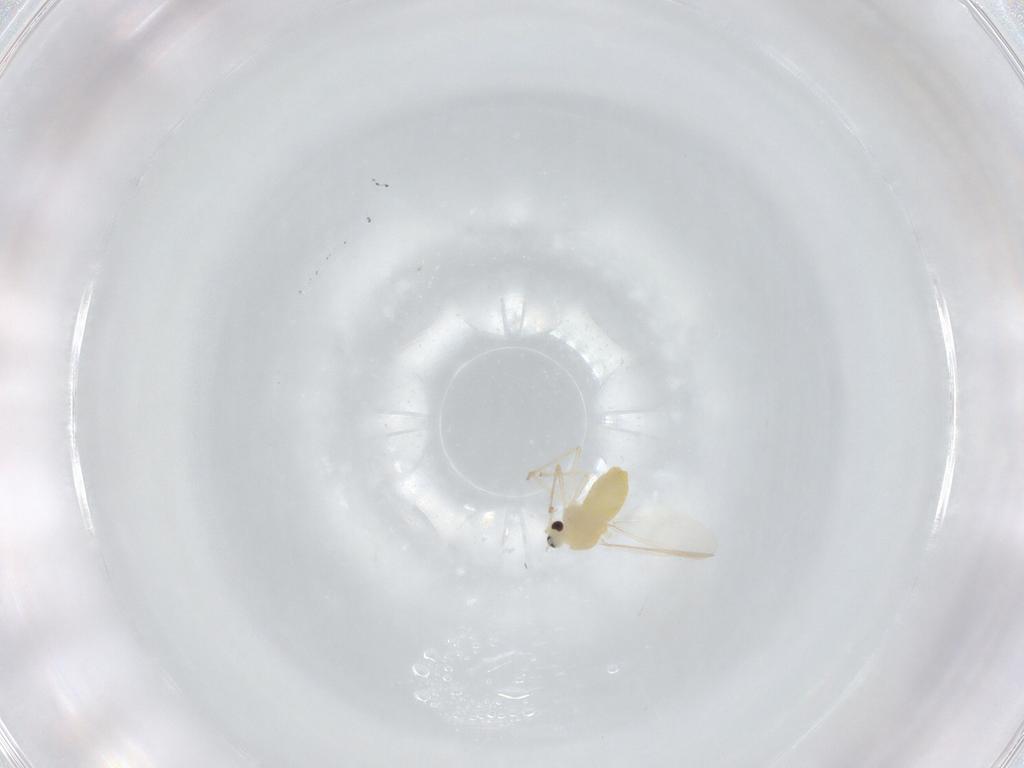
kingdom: Animalia
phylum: Arthropoda
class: Insecta
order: Diptera
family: Chironomidae
